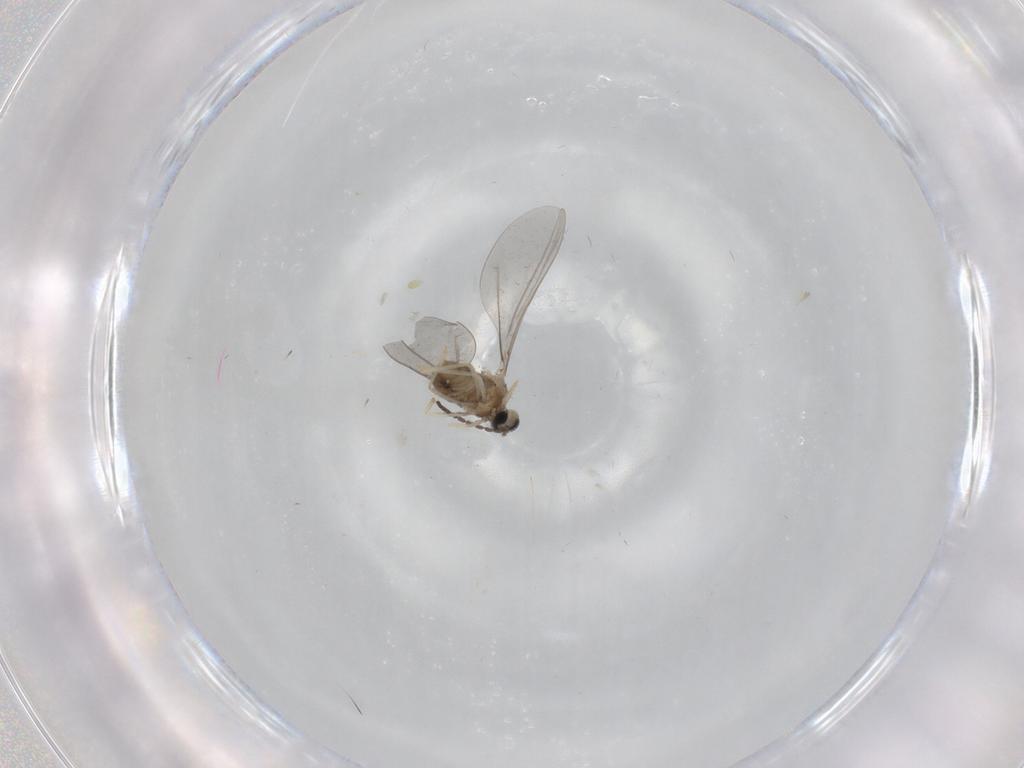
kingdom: Animalia
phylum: Arthropoda
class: Insecta
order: Diptera
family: Cecidomyiidae
